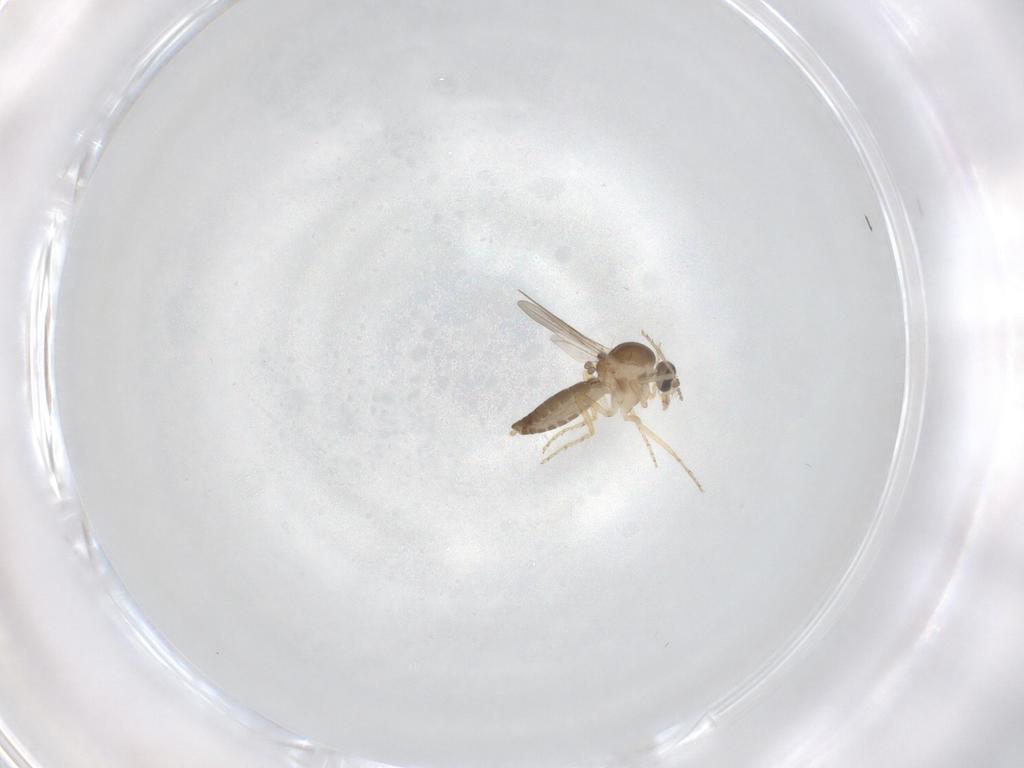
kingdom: Animalia
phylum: Arthropoda
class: Insecta
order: Diptera
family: Ceratopogonidae
